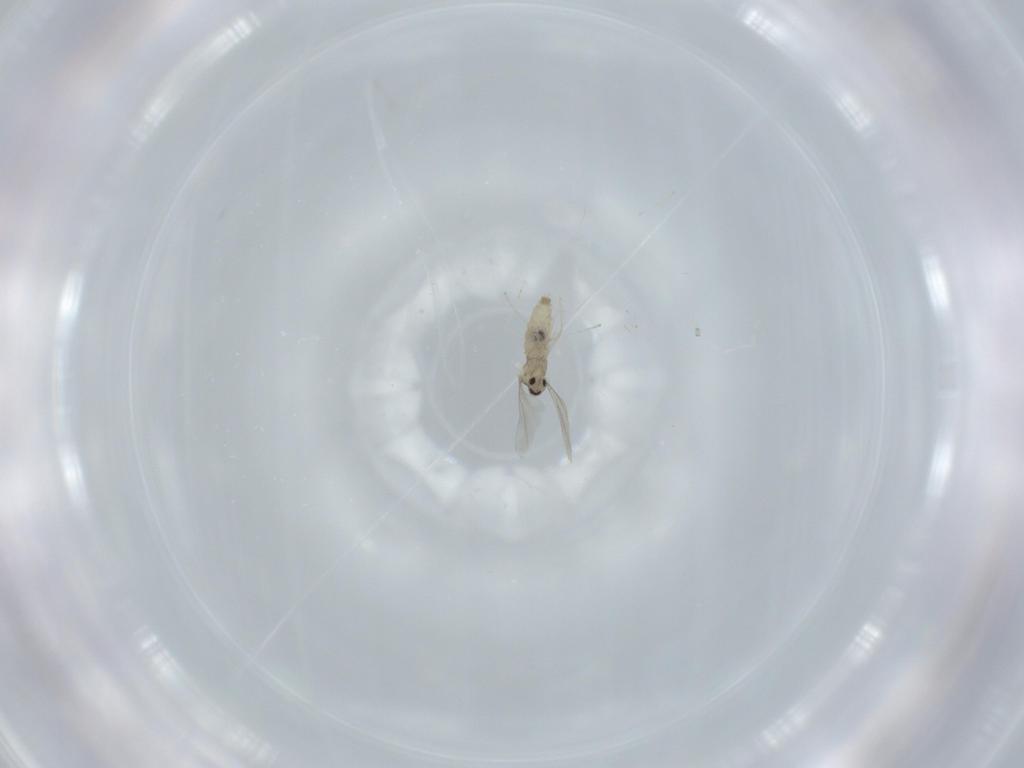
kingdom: Animalia
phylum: Arthropoda
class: Insecta
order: Diptera
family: Cecidomyiidae
